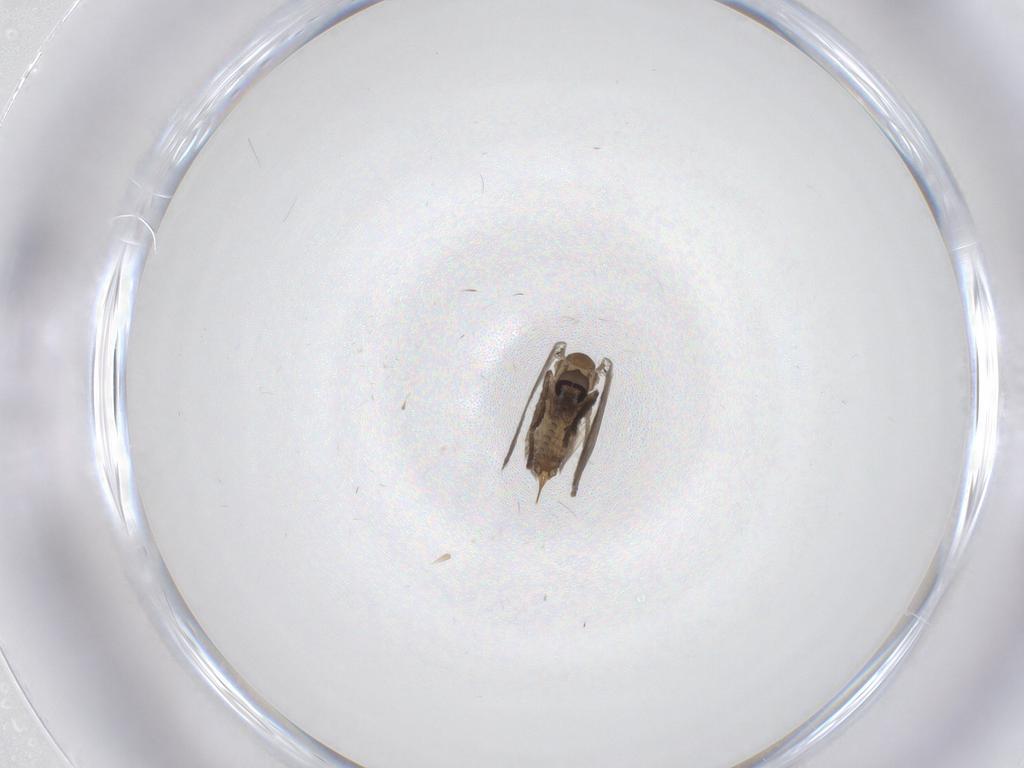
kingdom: Animalia
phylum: Arthropoda
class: Insecta
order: Diptera
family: Psychodidae
